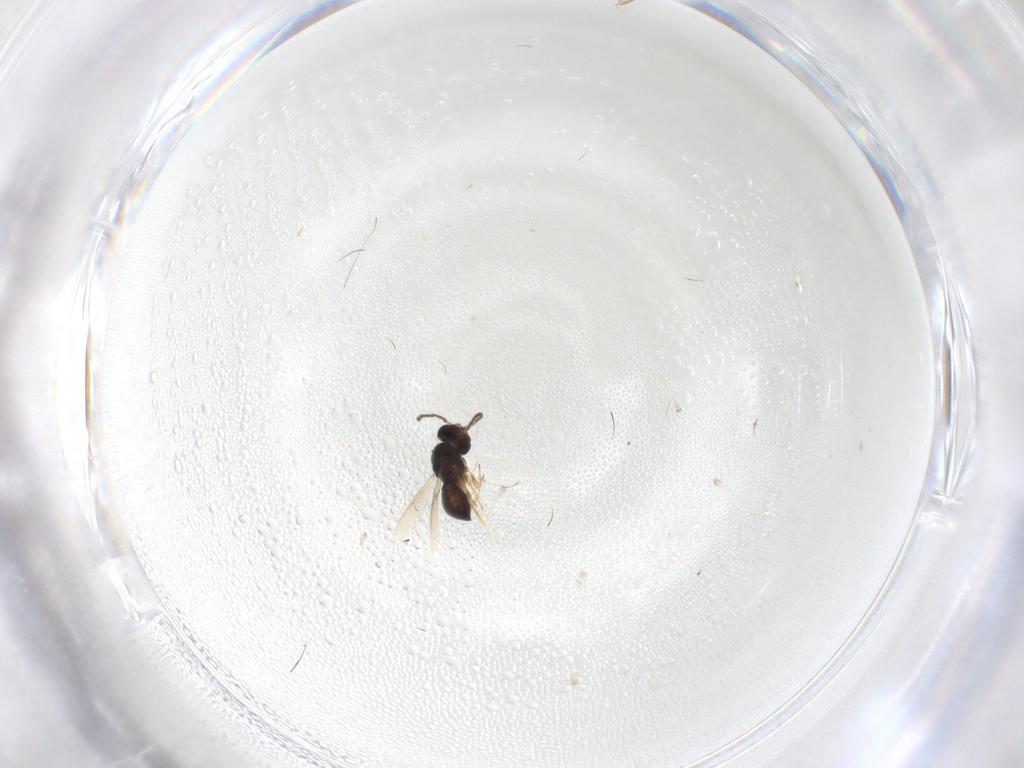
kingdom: Animalia
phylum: Arthropoda
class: Insecta
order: Hymenoptera
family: Scelionidae
